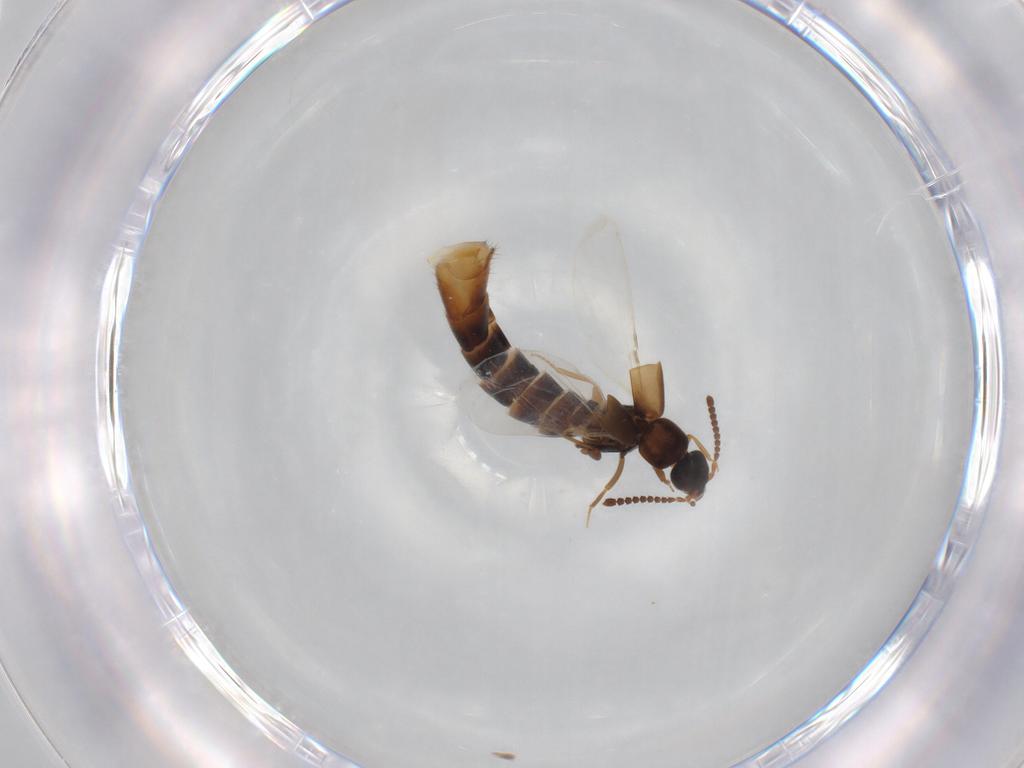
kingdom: Animalia
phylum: Arthropoda
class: Insecta
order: Coleoptera
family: Staphylinidae
